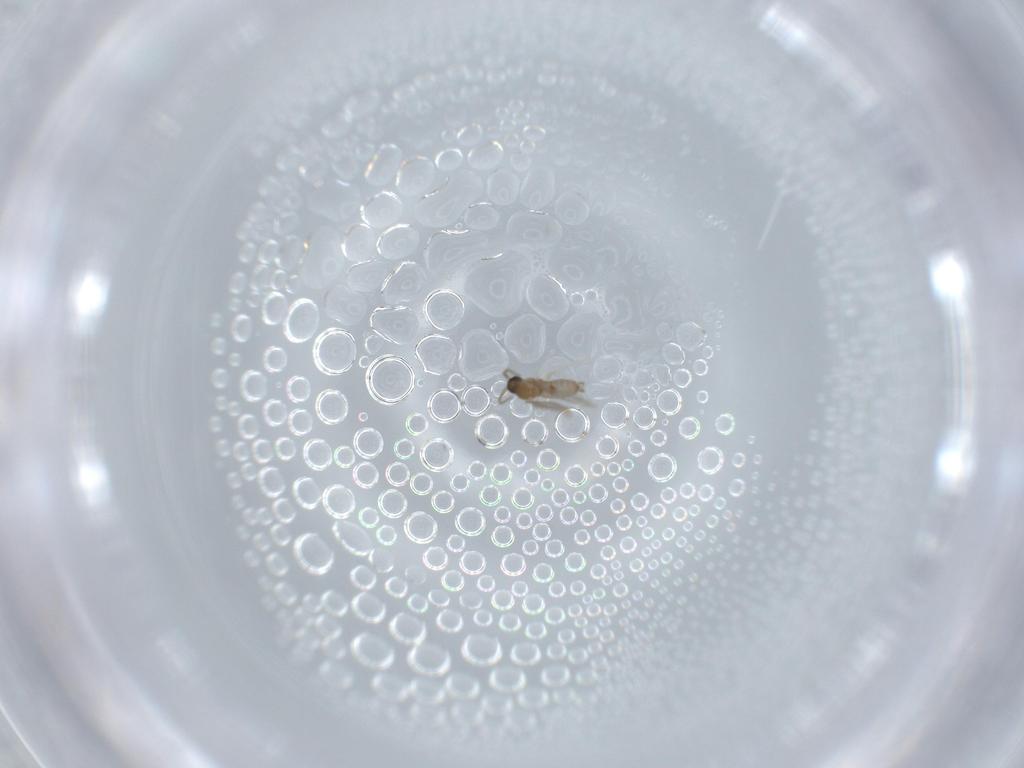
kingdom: Animalia
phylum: Arthropoda
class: Insecta
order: Diptera
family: Cecidomyiidae
